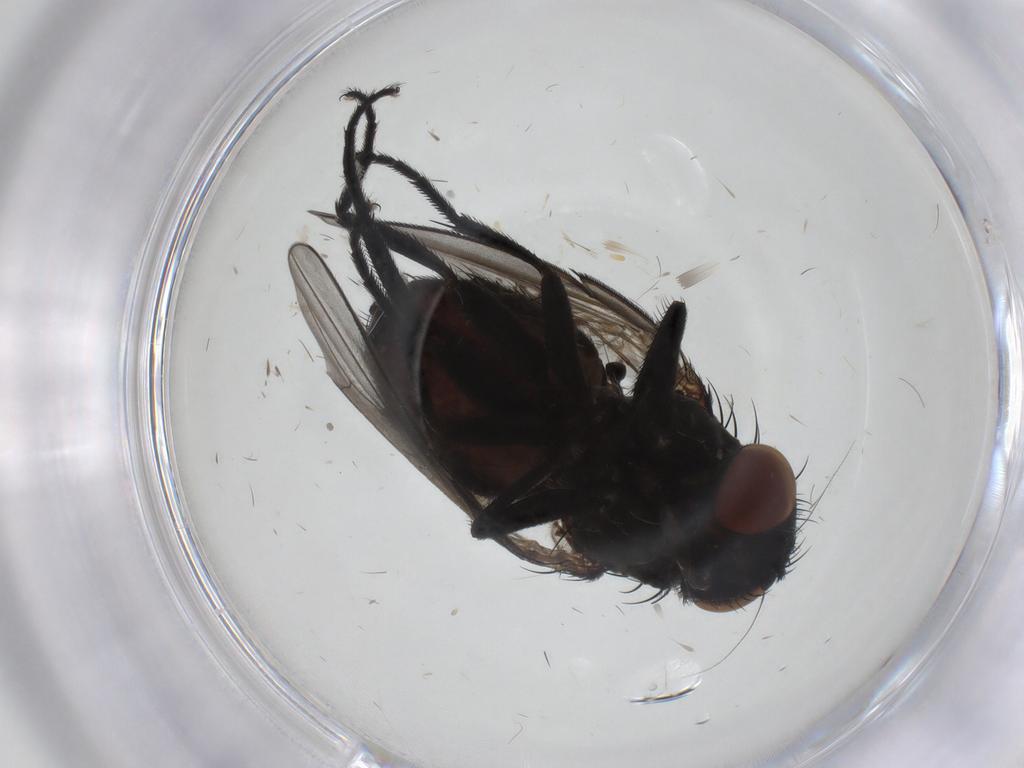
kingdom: Animalia
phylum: Arthropoda
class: Insecta
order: Diptera
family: Milichiidae
